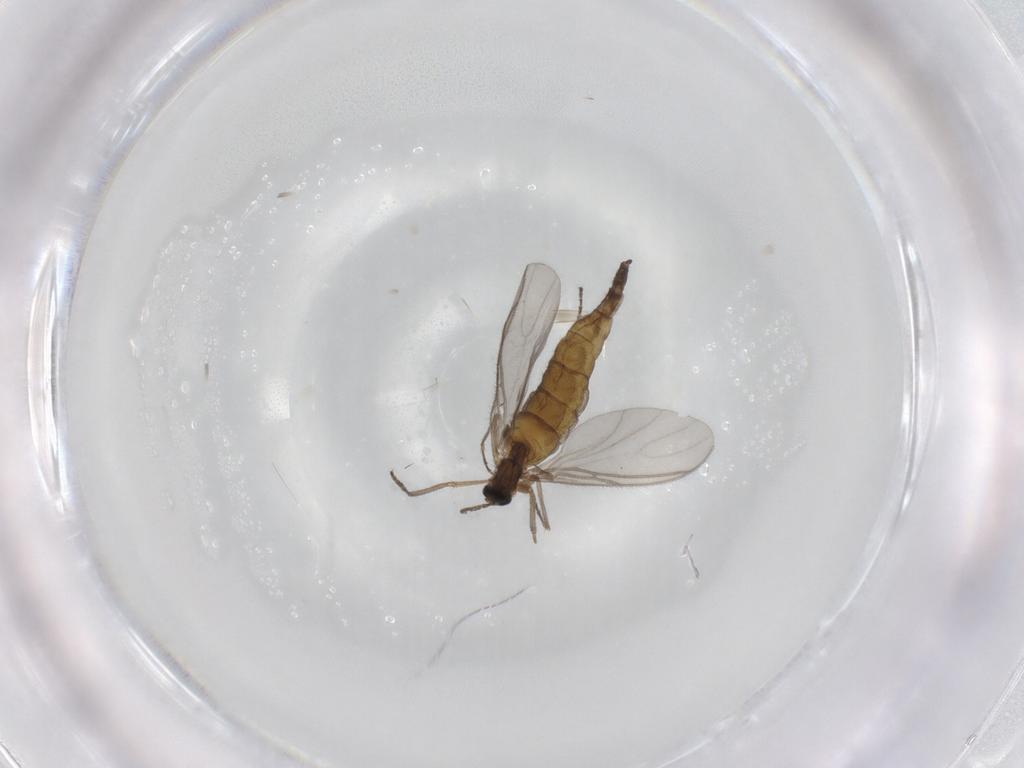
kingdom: Animalia
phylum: Arthropoda
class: Insecta
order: Diptera
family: Sciaridae
